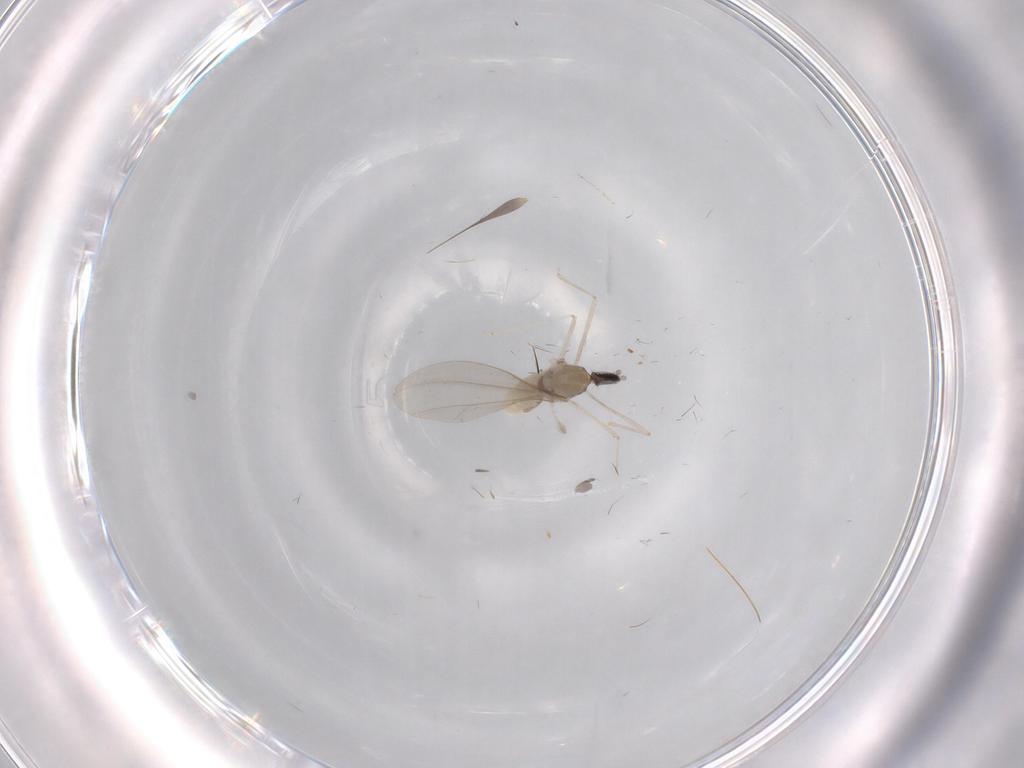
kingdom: Animalia
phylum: Arthropoda
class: Insecta
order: Diptera
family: Cecidomyiidae
